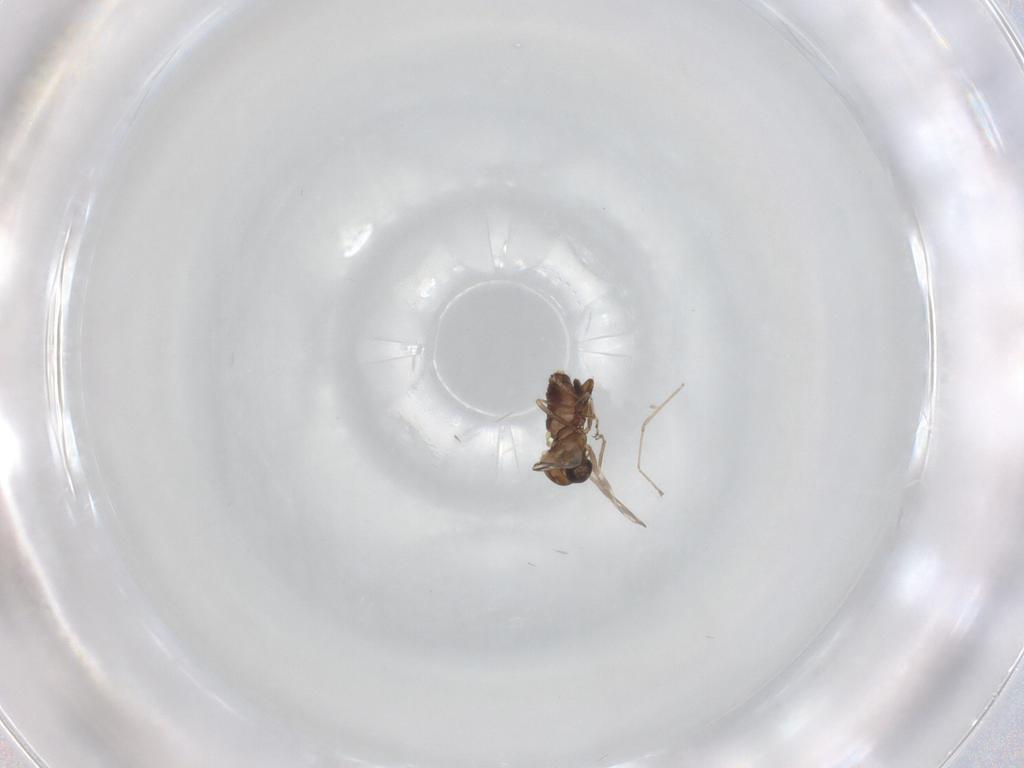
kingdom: Animalia
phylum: Arthropoda
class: Insecta
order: Diptera
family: Ceratopogonidae
